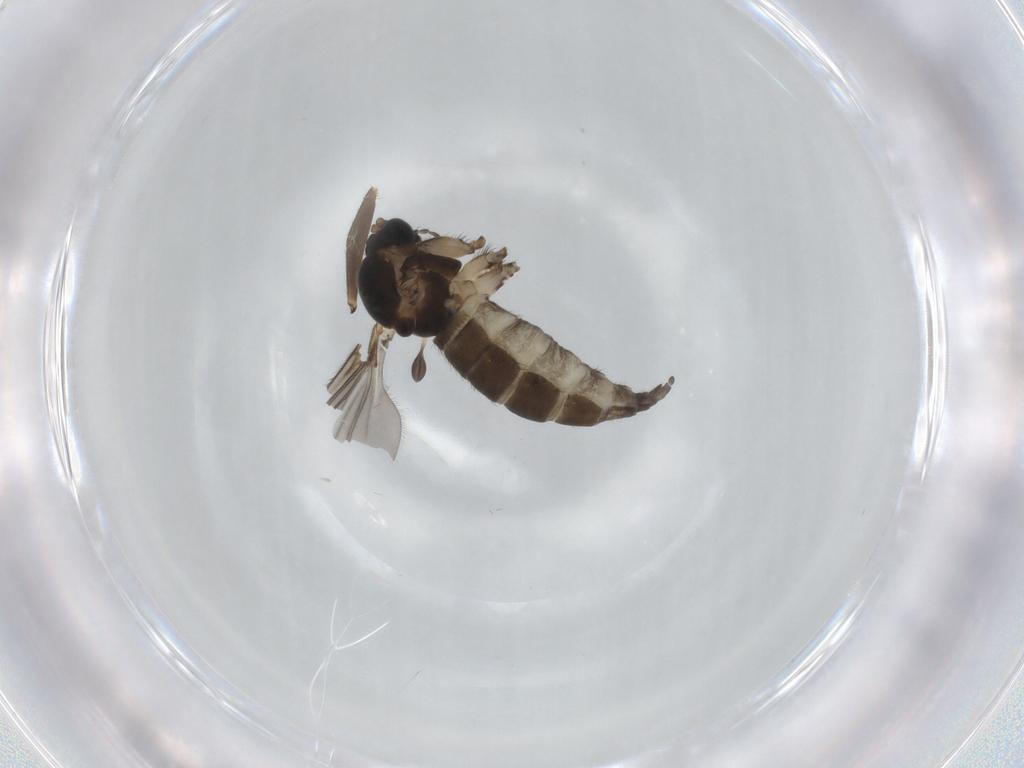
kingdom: Animalia
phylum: Arthropoda
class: Insecta
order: Diptera
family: Sciaridae
